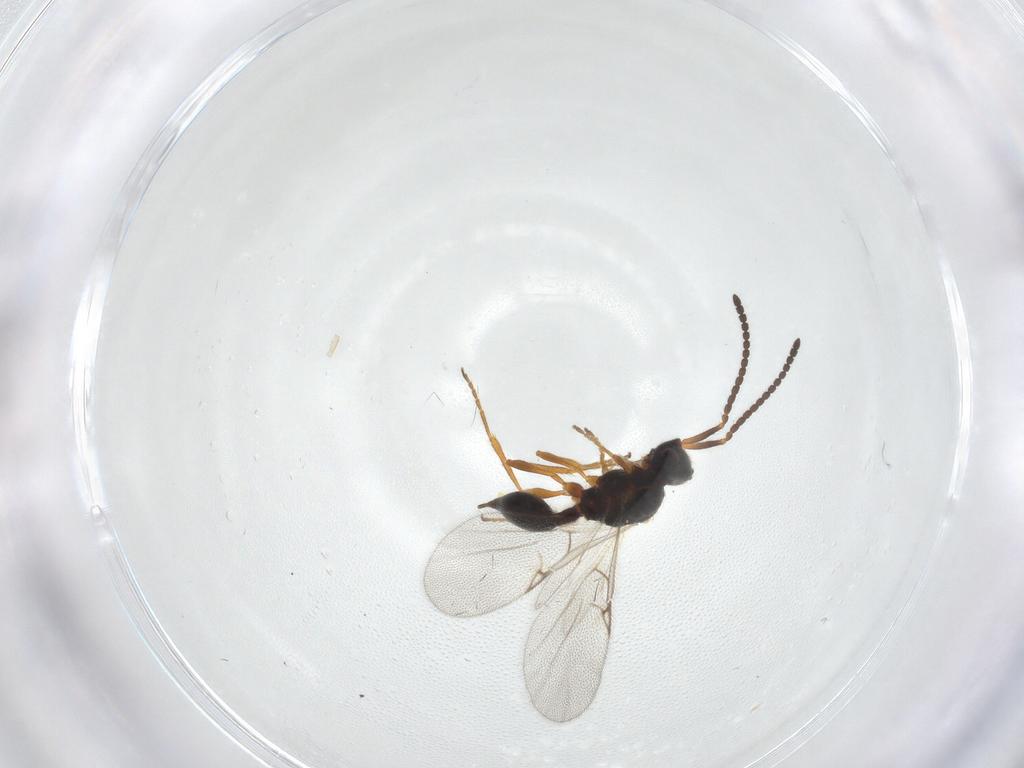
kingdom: Animalia
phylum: Arthropoda
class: Insecta
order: Hymenoptera
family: Diapriidae
